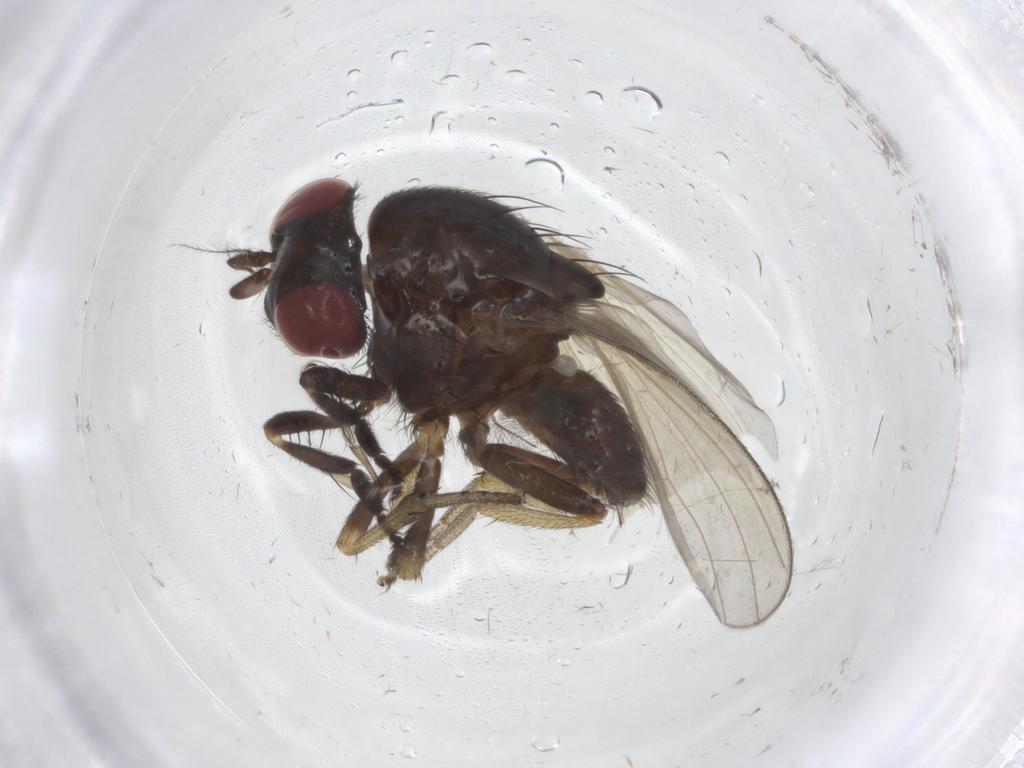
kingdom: Animalia
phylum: Arthropoda
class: Insecta
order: Diptera
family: Phoridae
